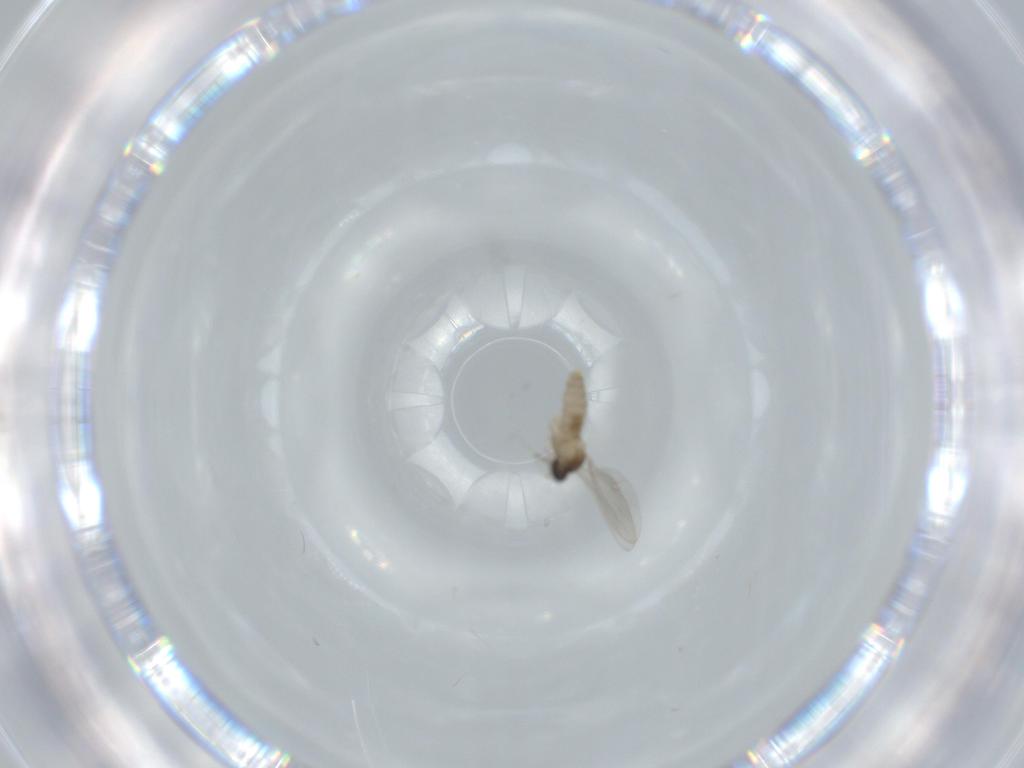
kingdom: Animalia
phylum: Arthropoda
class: Insecta
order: Diptera
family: Cecidomyiidae
